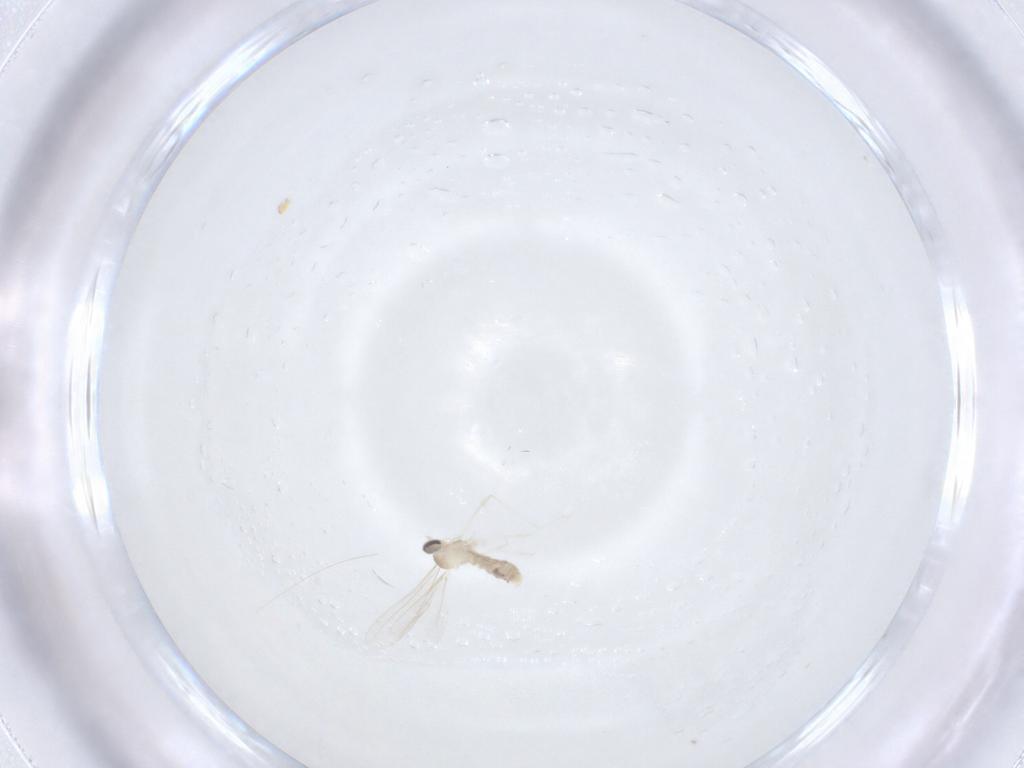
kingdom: Animalia
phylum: Arthropoda
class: Insecta
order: Diptera
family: Cecidomyiidae
